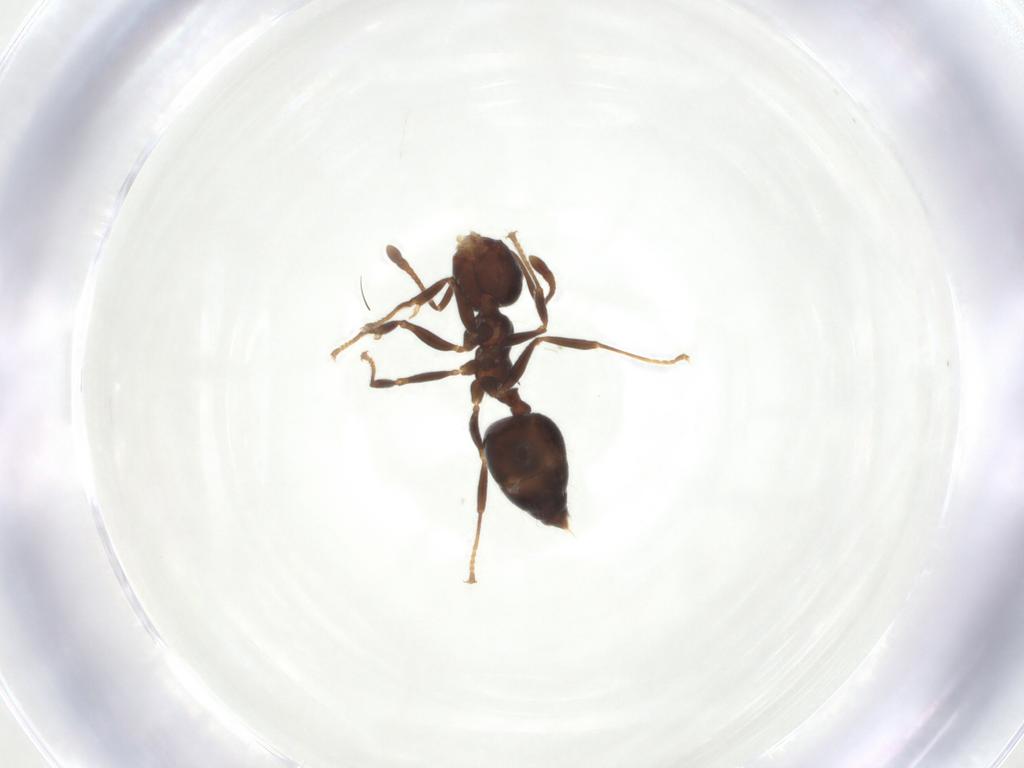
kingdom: Animalia
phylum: Arthropoda
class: Insecta
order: Hymenoptera
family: Formicidae
